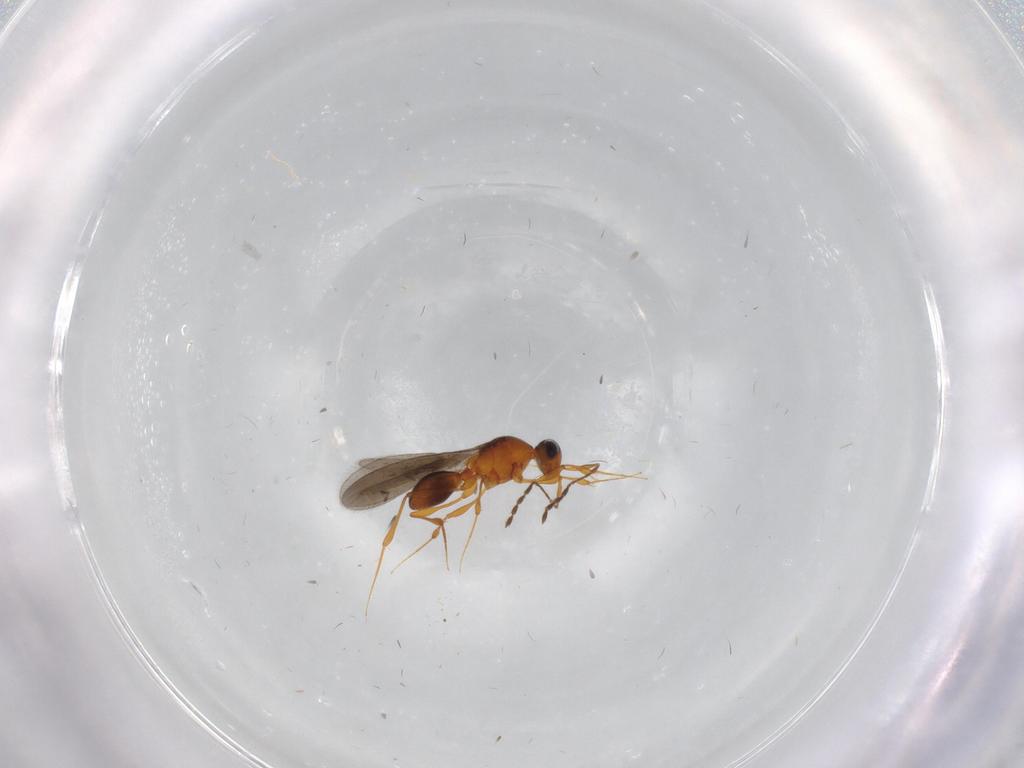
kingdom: Animalia
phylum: Arthropoda
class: Insecta
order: Hymenoptera
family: Platygastridae
